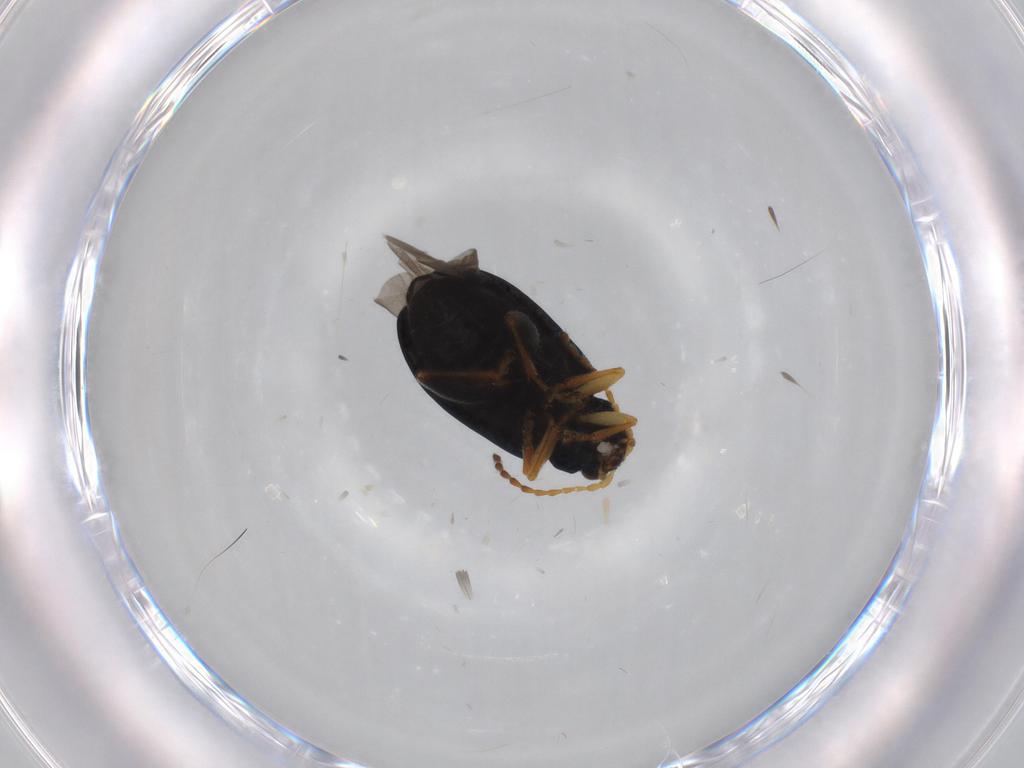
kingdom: Animalia
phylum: Arthropoda
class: Insecta
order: Coleoptera
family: Chrysomelidae
